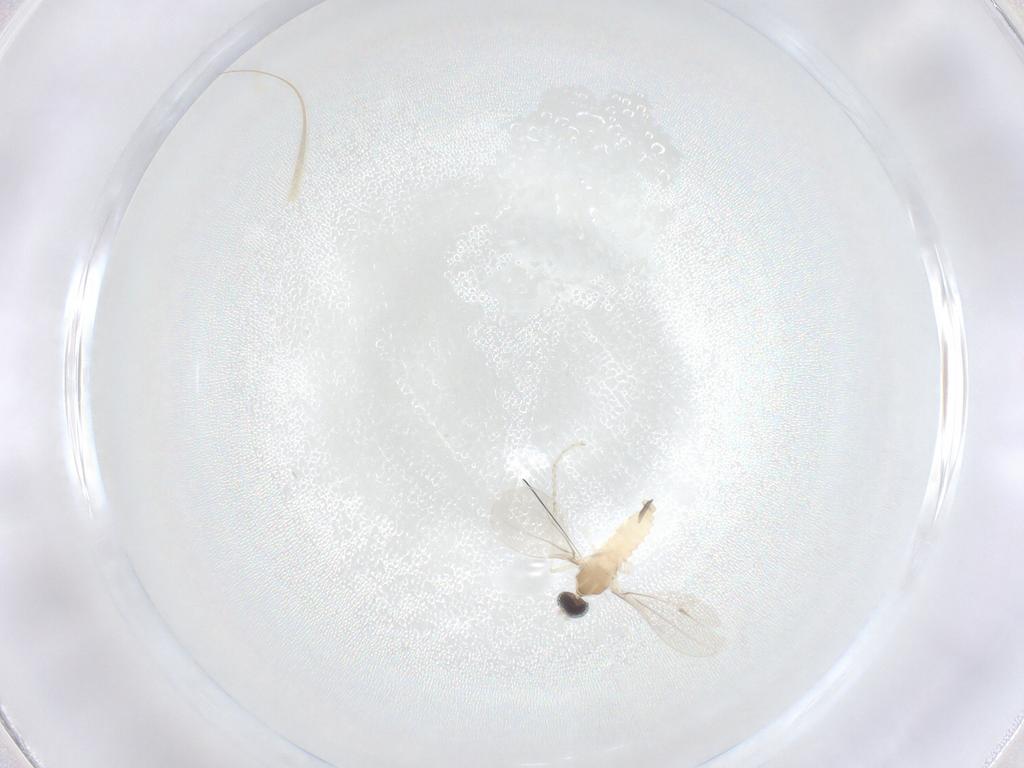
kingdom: Animalia
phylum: Arthropoda
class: Insecta
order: Diptera
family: Cecidomyiidae
